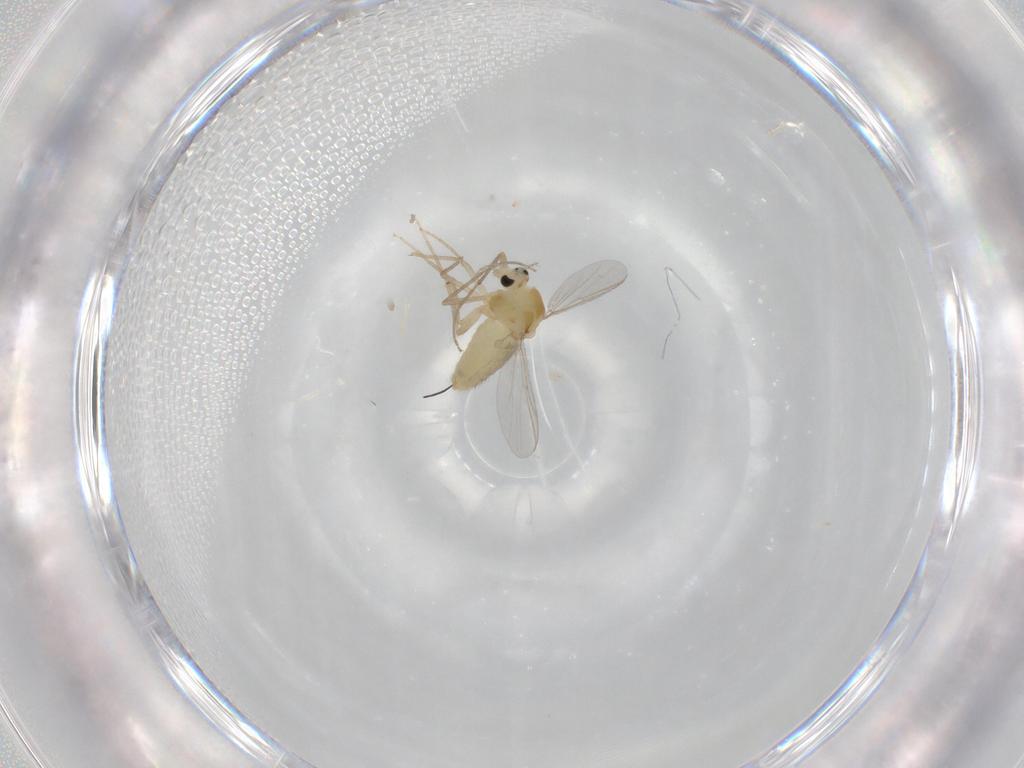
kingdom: Animalia
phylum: Arthropoda
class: Insecta
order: Diptera
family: Chironomidae
